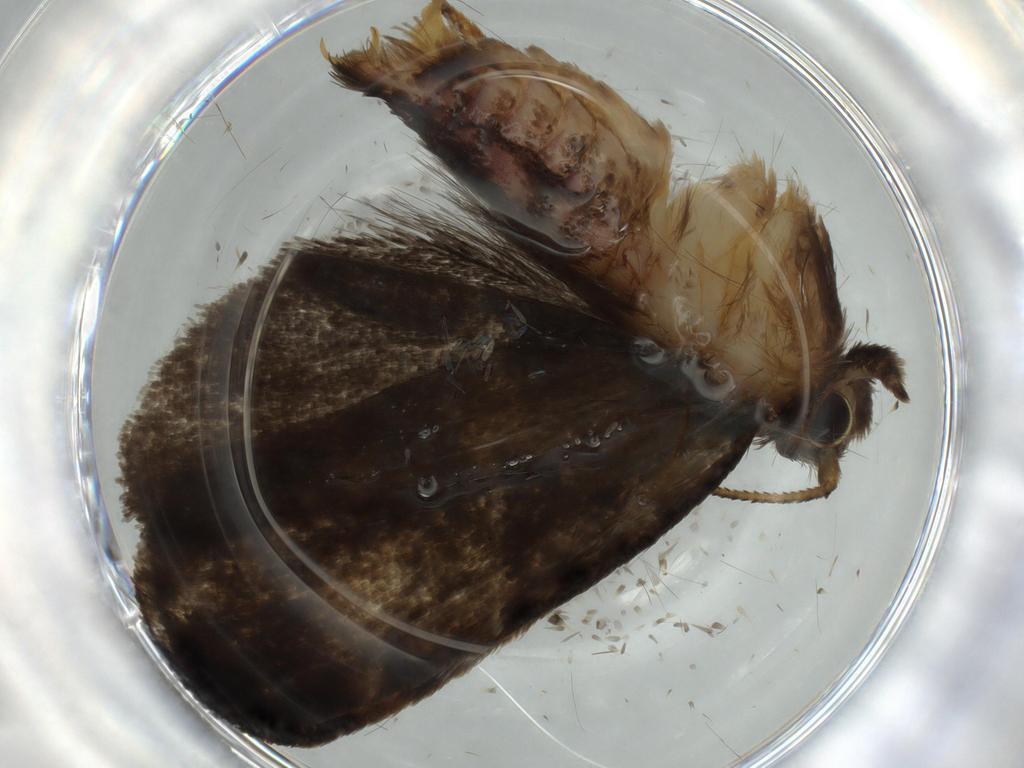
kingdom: Animalia
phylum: Arthropoda
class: Insecta
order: Lepidoptera
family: Tineidae
